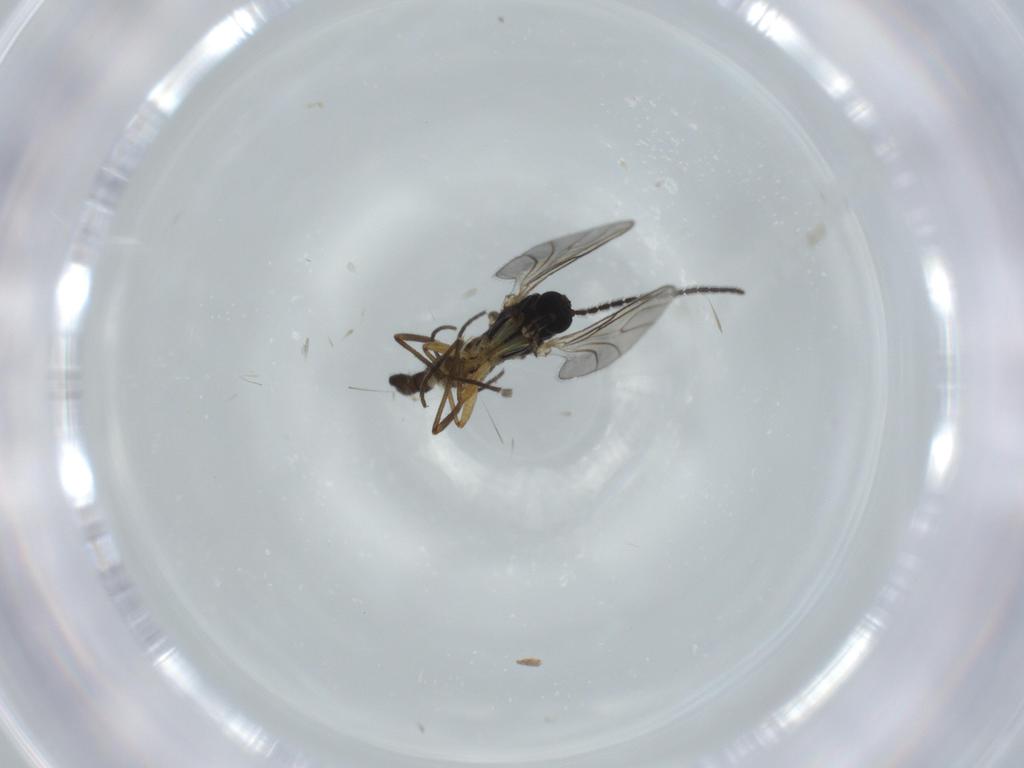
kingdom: Animalia
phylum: Arthropoda
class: Insecta
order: Diptera
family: Sciaridae
